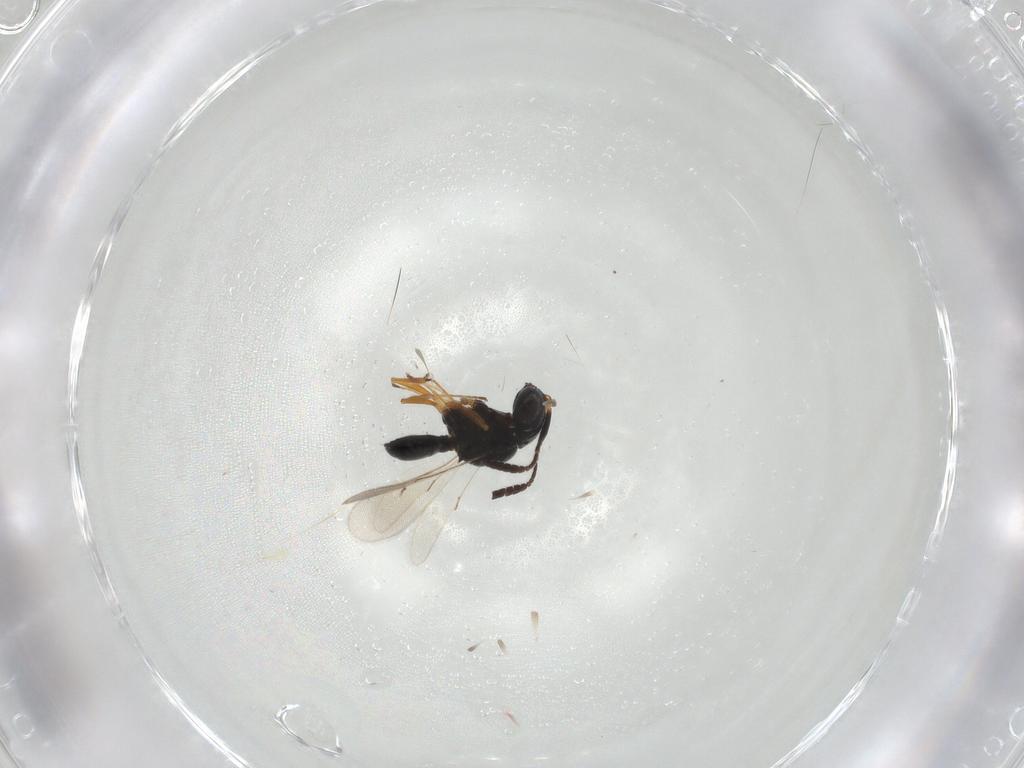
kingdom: Animalia
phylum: Arthropoda
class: Insecta
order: Hymenoptera
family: Scelionidae
